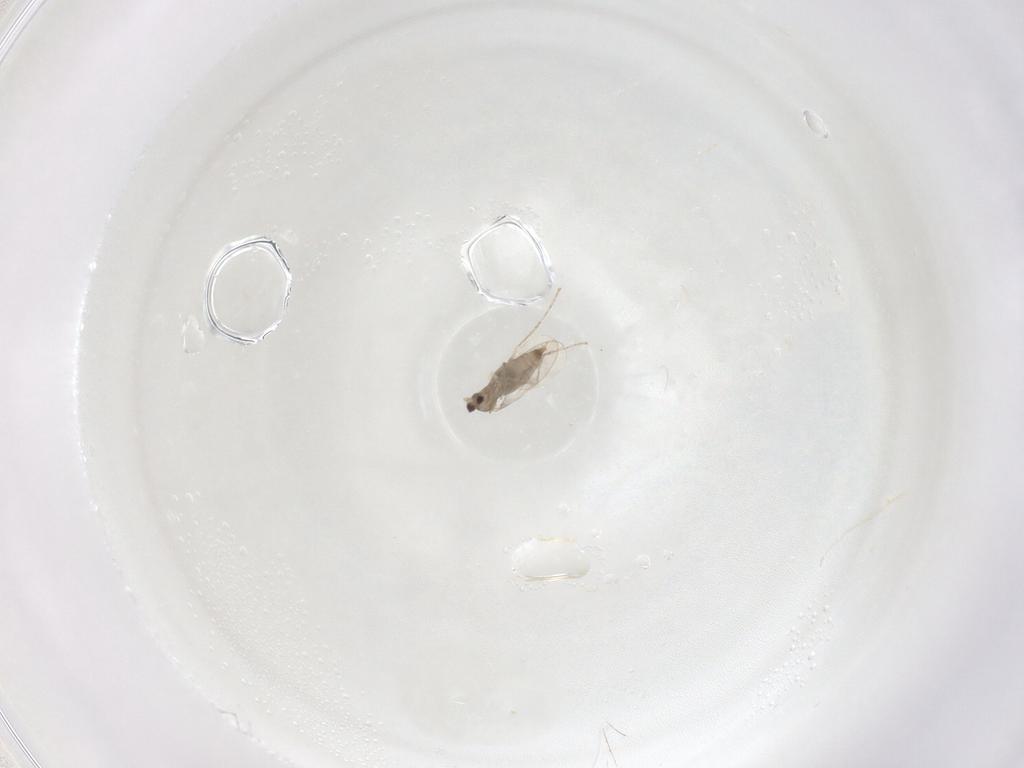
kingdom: Animalia
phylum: Arthropoda
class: Insecta
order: Diptera
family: Cecidomyiidae
